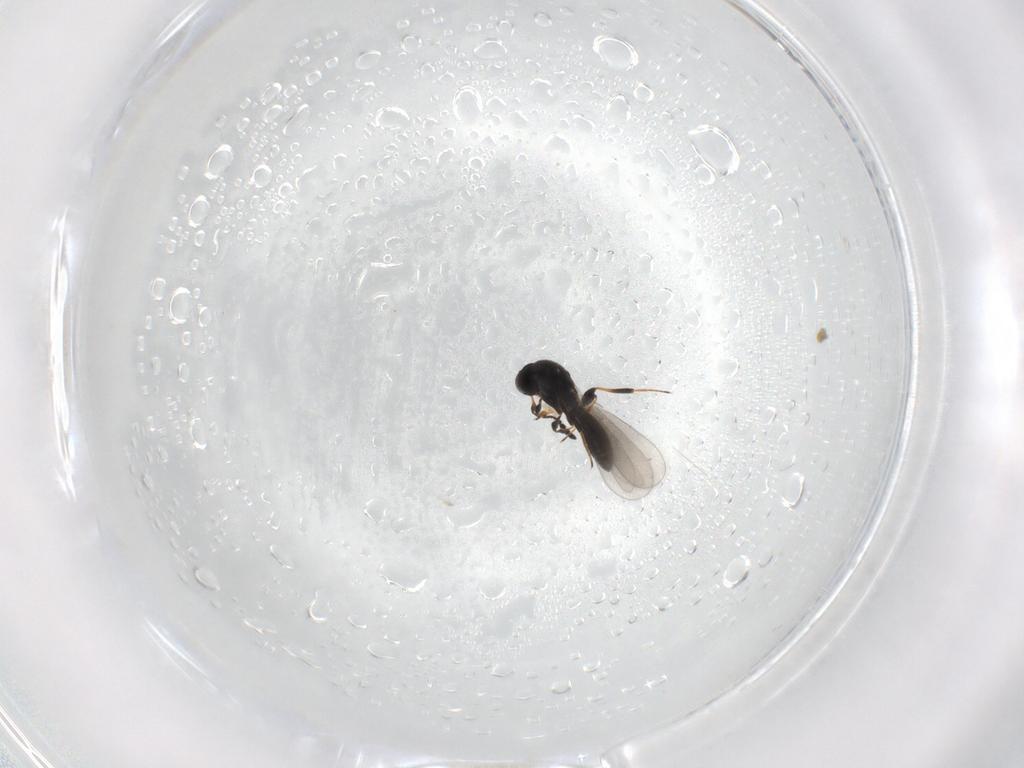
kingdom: Animalia
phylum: Arthropoda
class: Insecta
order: Hymenoptera
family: Platygastridae
